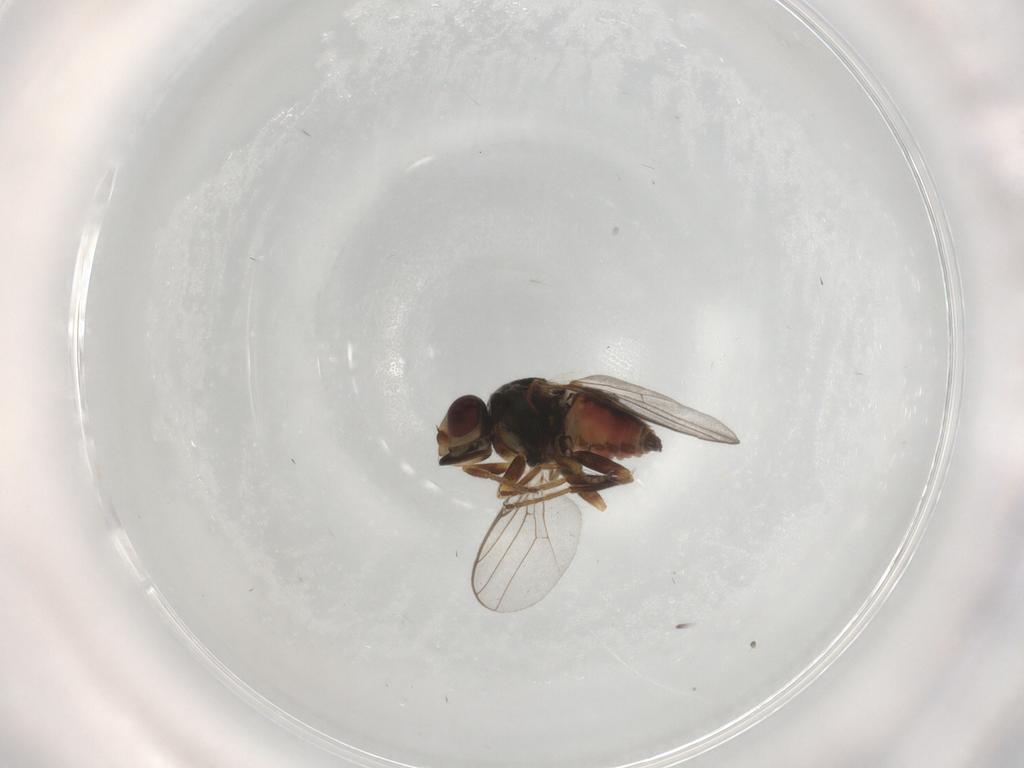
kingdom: Animalia
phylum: Arthropoda
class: Insecta
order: Diptera
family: Chloropidae
